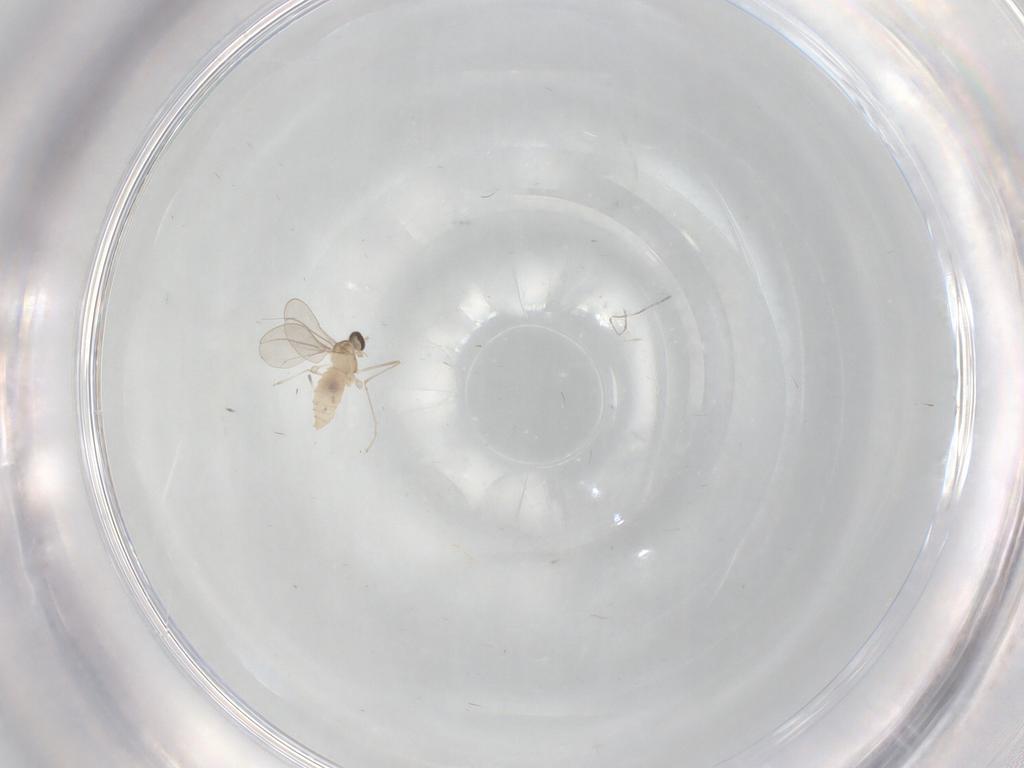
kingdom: Animalia
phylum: Arthropoda
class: Insecta
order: Diptera
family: Cecidomyiidae
